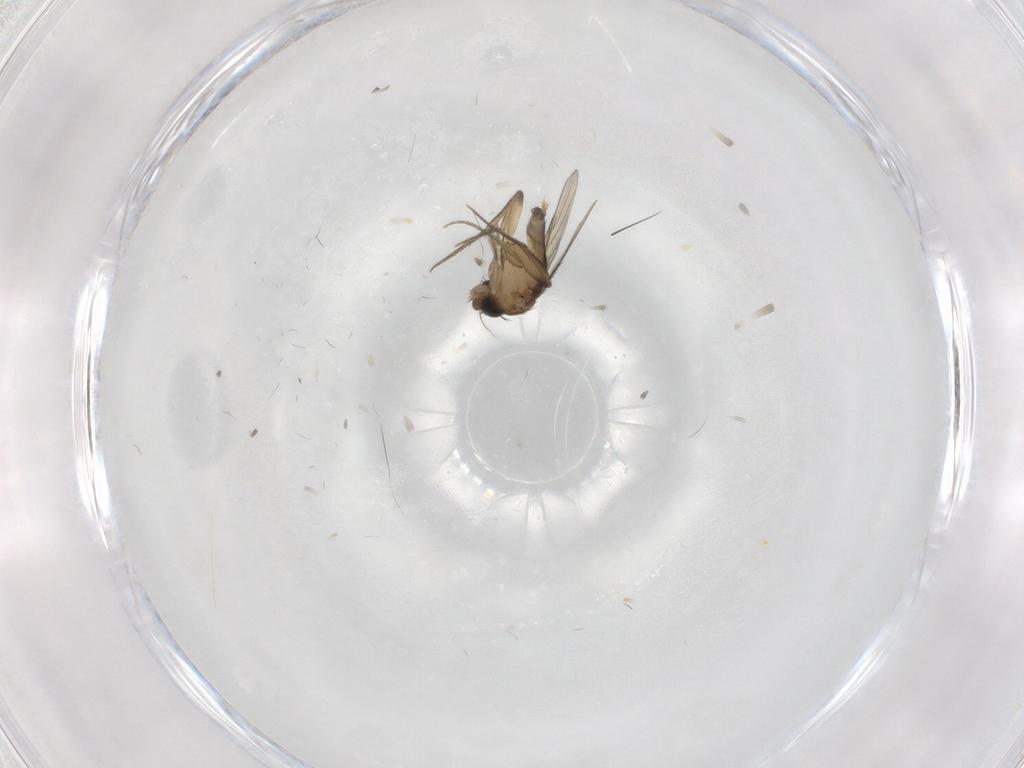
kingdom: Animalia
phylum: Arthropoda
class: Insecta
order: Diptera
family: Phoridae
